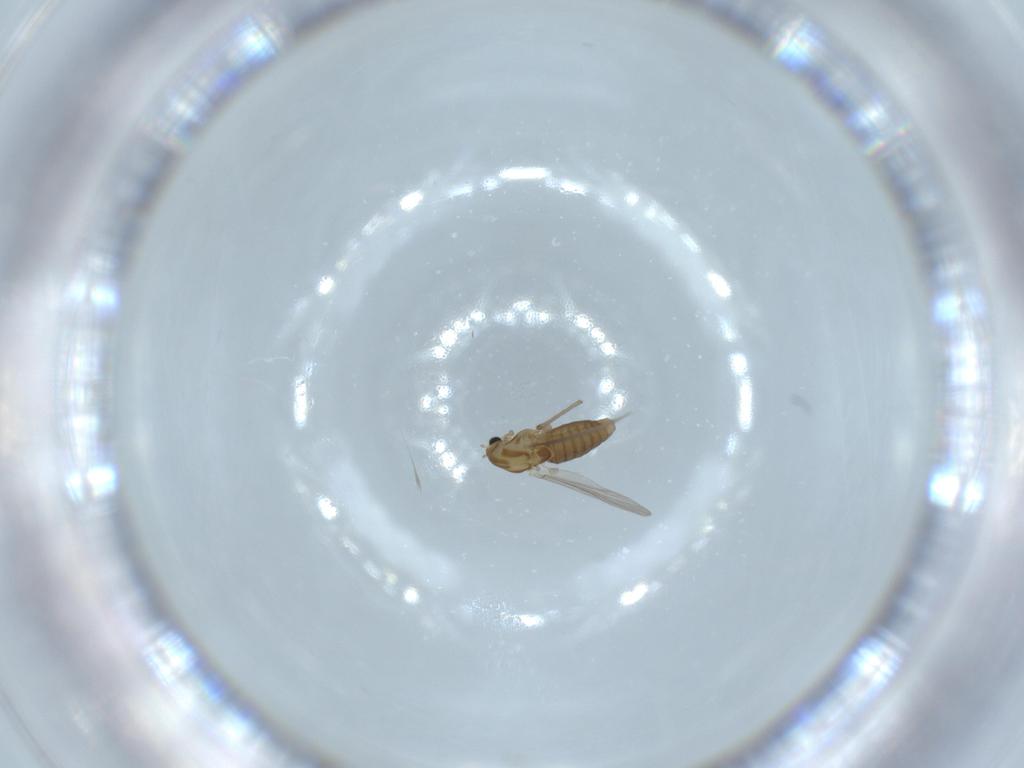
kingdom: Animalia
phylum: Arthropoda
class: Insecta
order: Diptera
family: Chironomidae
